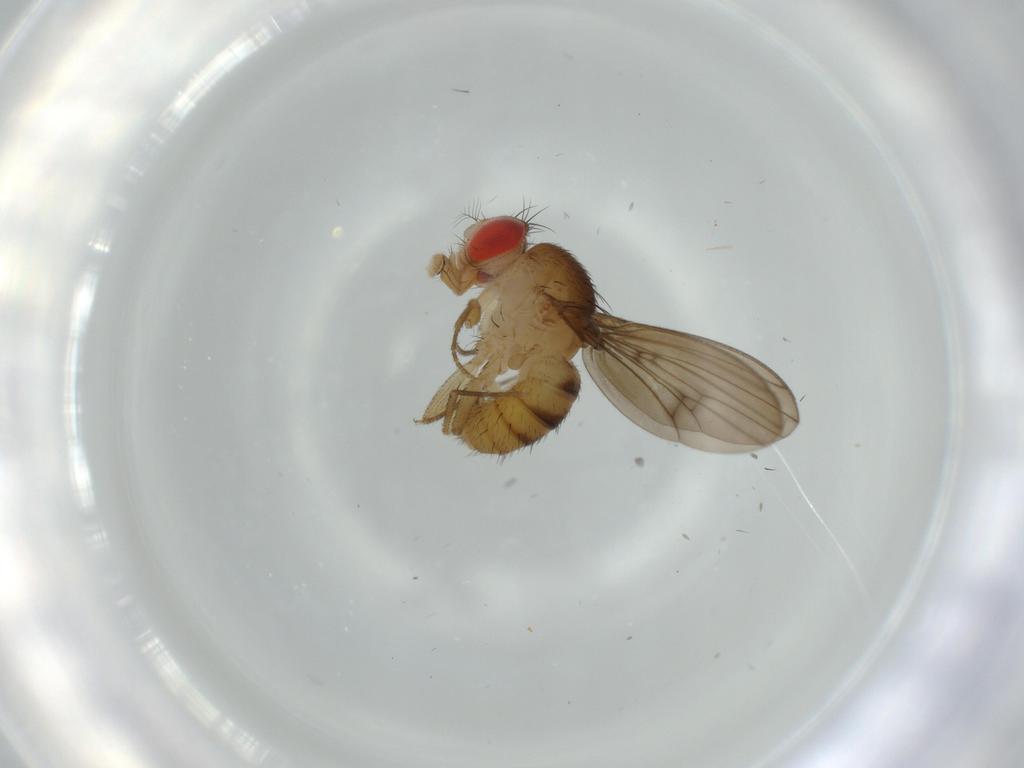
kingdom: Animalia
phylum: Arthropoda
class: Insecta
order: Diptera
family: Drosophilidae
